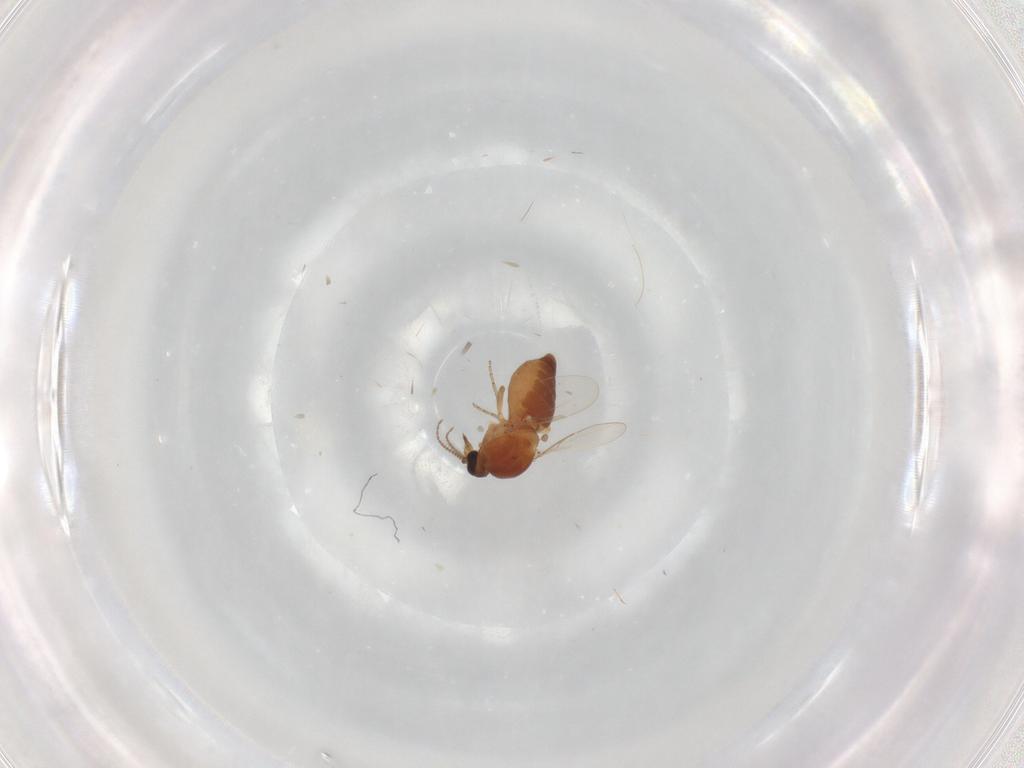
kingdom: Animalia
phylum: Arthropoda
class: Insecta
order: Diptera
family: Ceratopogonidae
